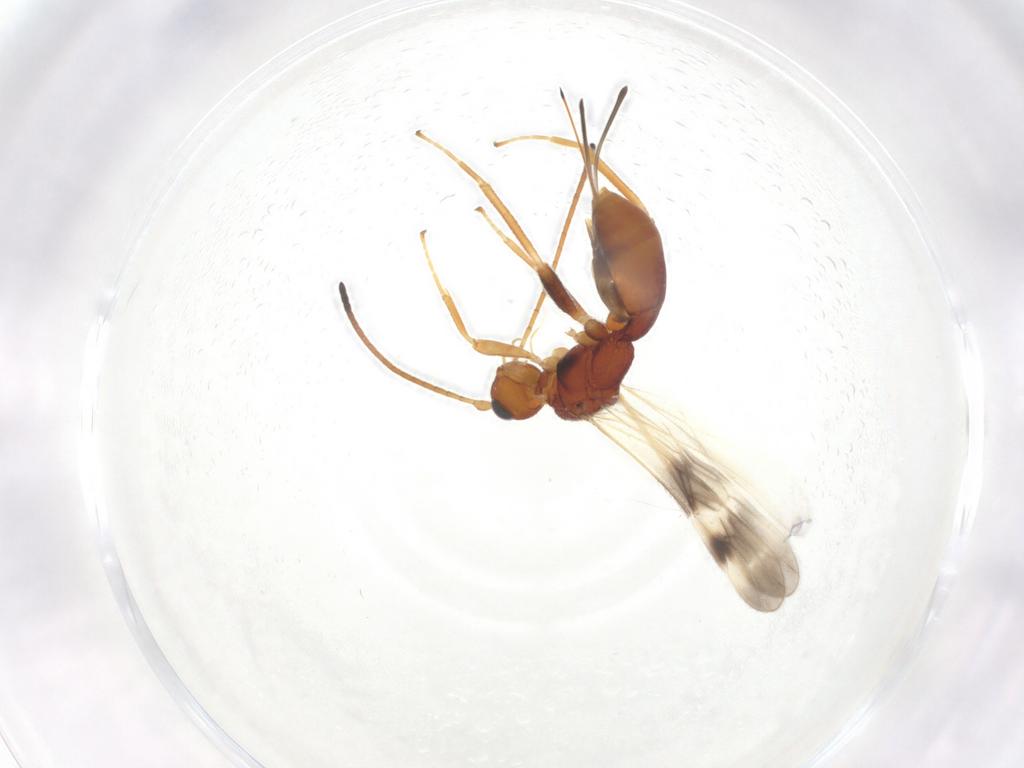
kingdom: Animalia
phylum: Arthropoda
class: Insecta
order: Hymenoptera
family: Braconidae
